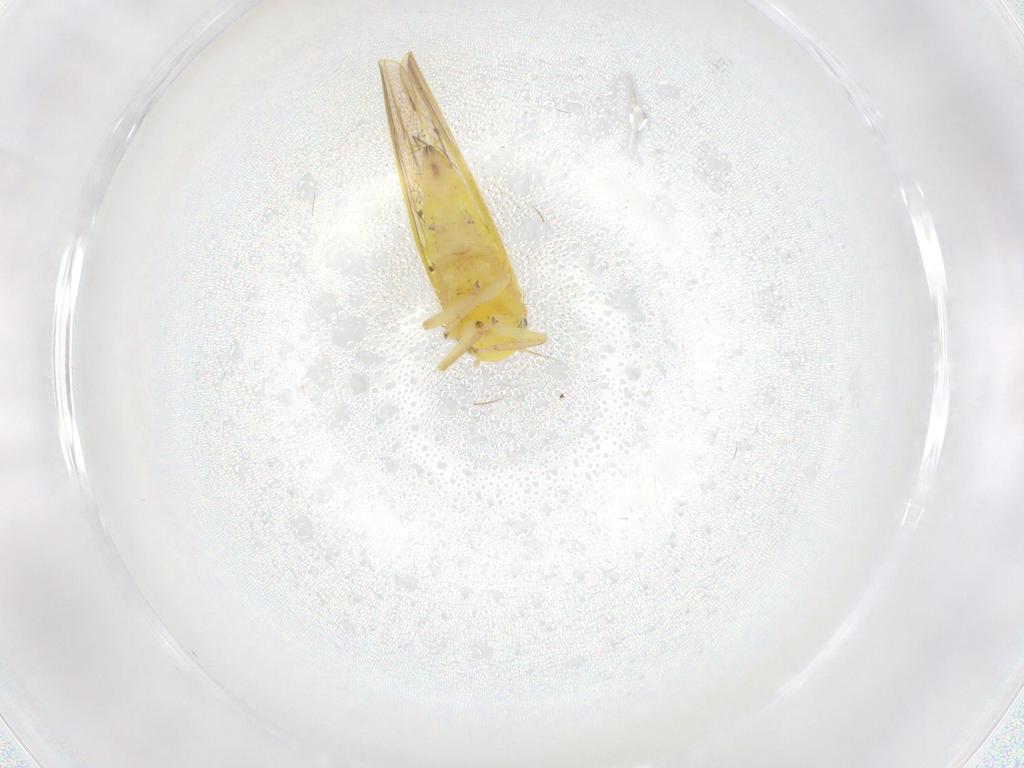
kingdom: Animalia
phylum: Arthropoda
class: Insecta
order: Hemiptera
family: Cicadellidae
